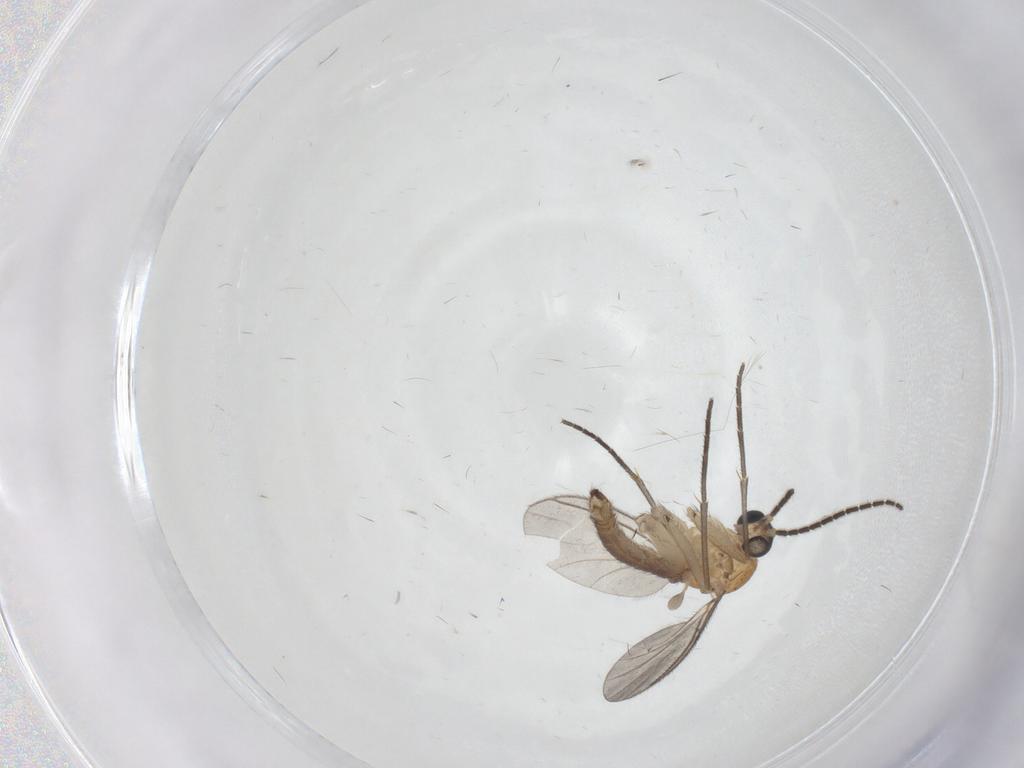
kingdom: Animalia
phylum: Arthropoda
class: Insecta
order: Diptera
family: Sciaridae
